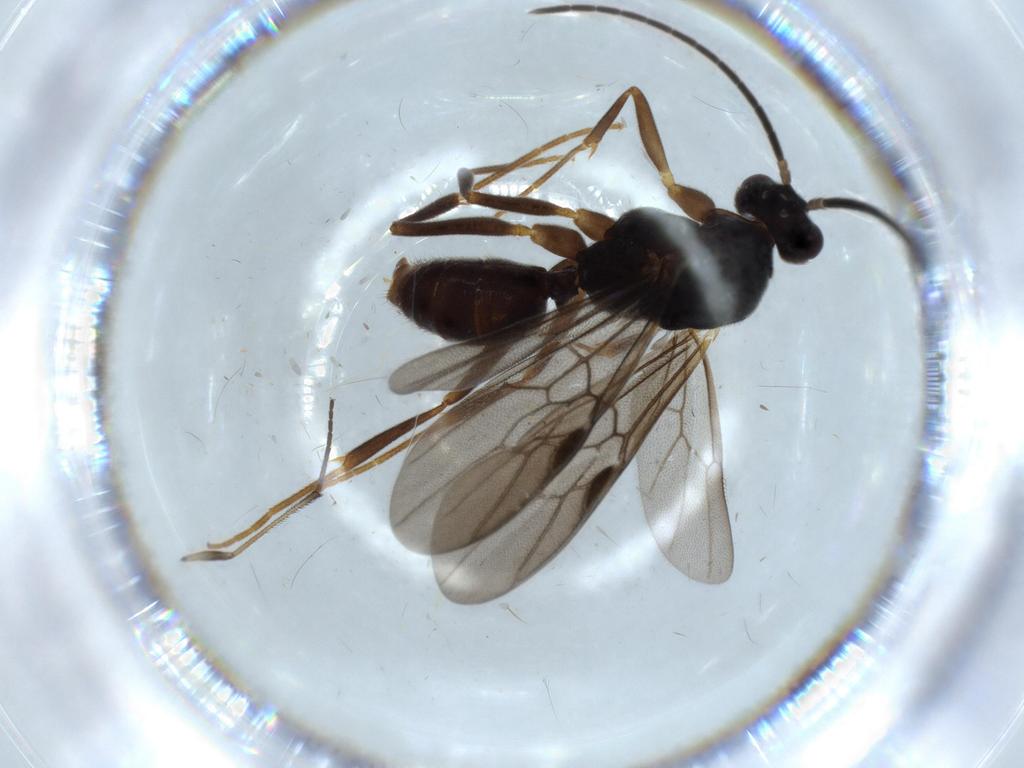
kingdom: Animalia
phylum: Arthropoda
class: Insecta
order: Hymenoptera
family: Formicidae
